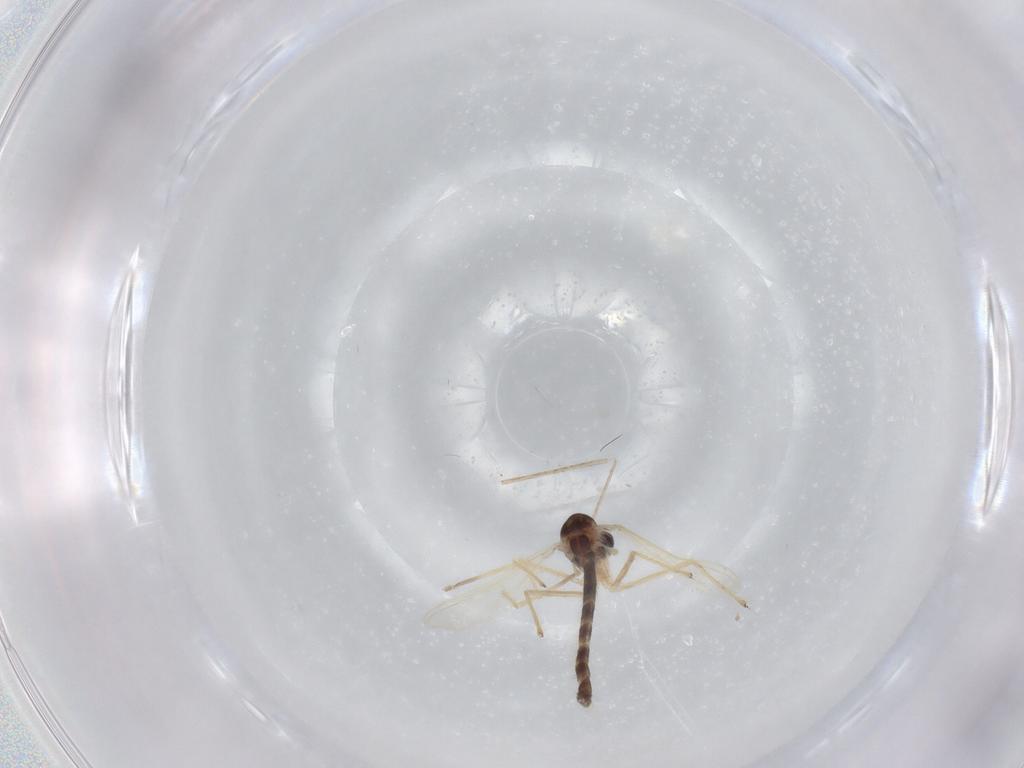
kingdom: Animalia
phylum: Arthropoda
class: Insecta
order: Diptera
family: Chironomidae
